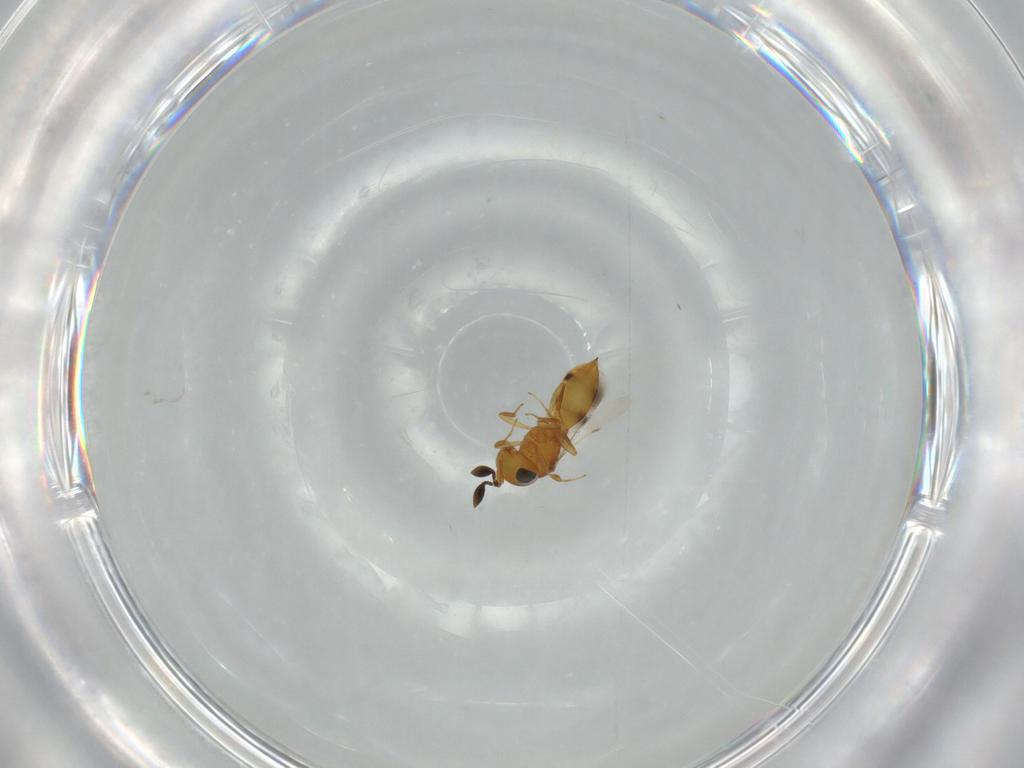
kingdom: Animalia
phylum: Arthropoda
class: Insecta
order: Hymenoptera
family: Scelionidae
